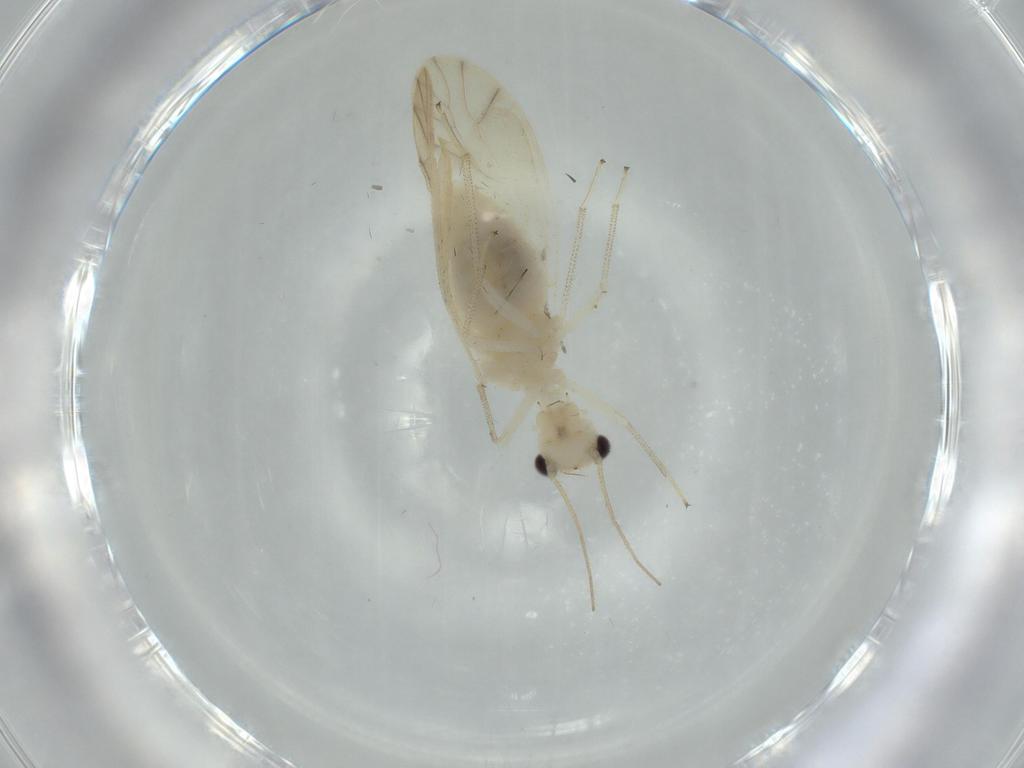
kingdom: Animalia
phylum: Arthropoda
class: Insecta
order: Psocodea
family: Caeciliusidae
